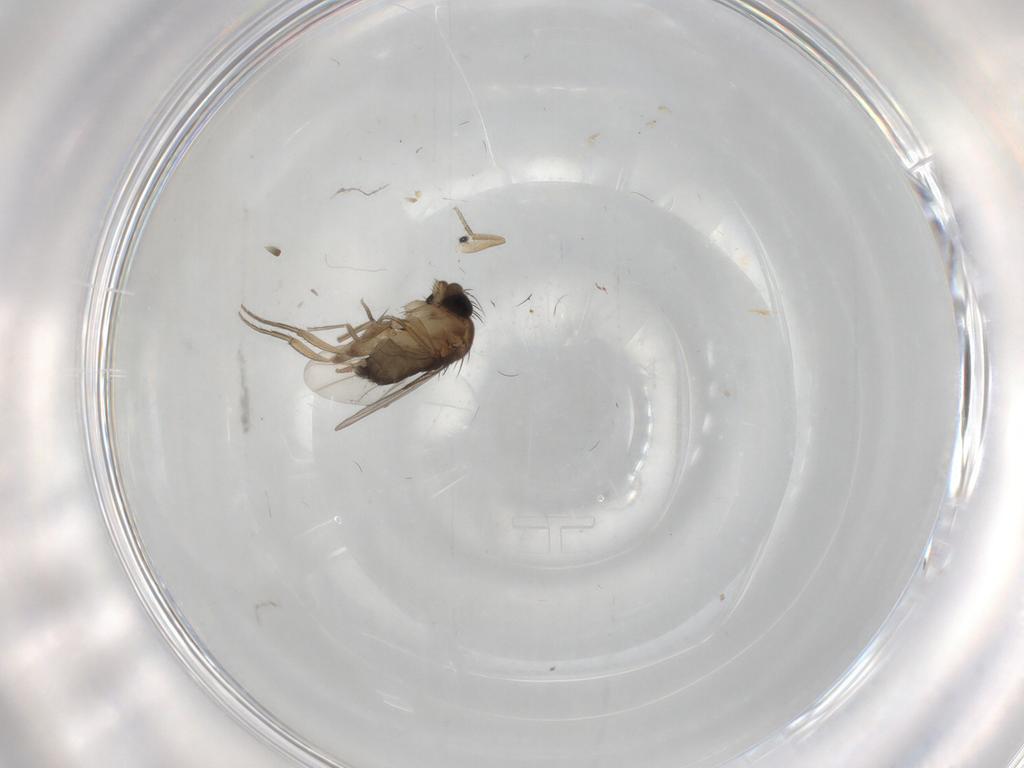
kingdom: Animalia
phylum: Arthropoda
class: Insecta
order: Diptera
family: Phoridae
